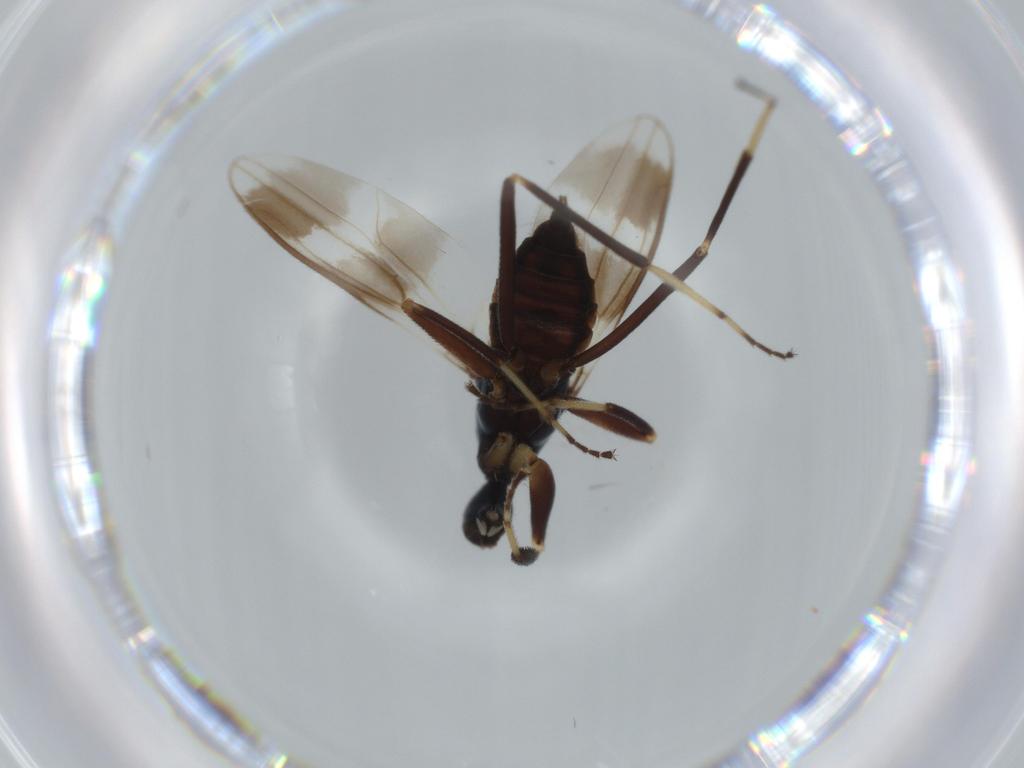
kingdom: Animalia
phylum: Arthropoda
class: Insecta
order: Diptera
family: Hybotidae
